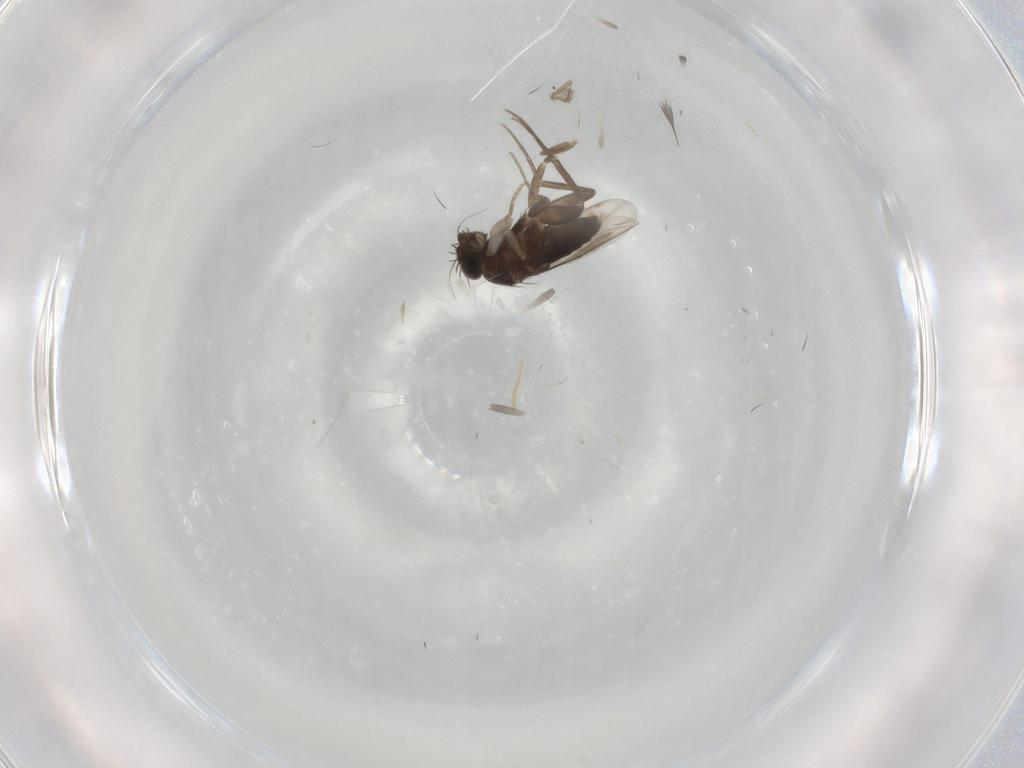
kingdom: Animalia
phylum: Arthropoda
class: Insecta
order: Diptera
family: Phoridae
